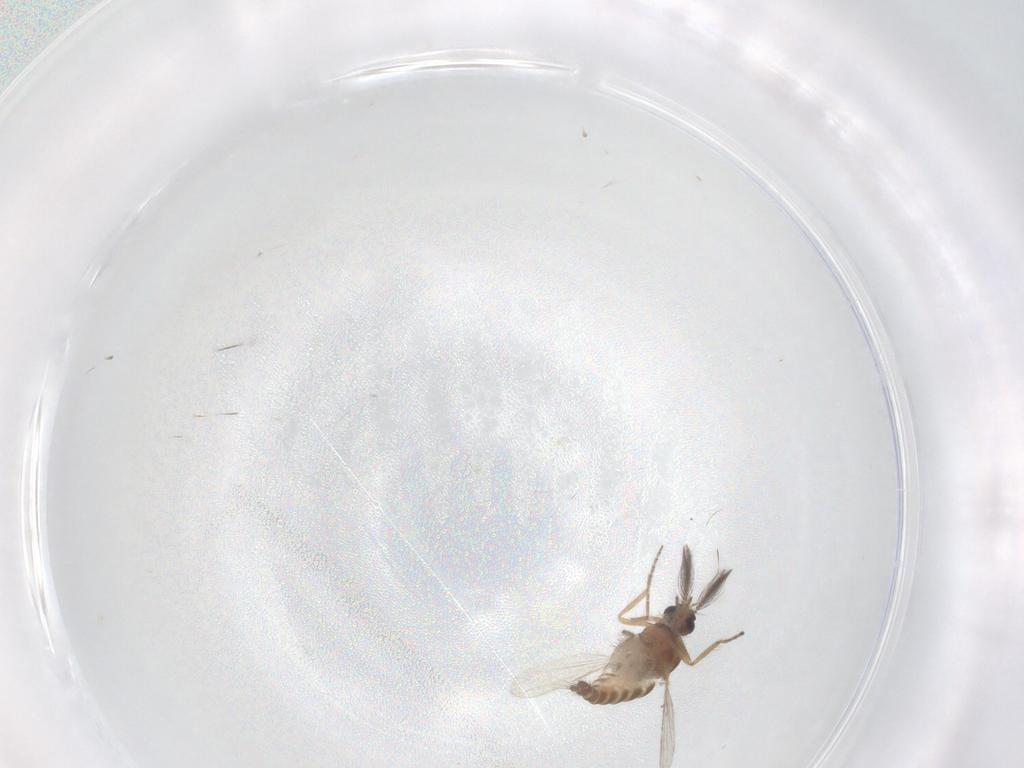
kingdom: Animalia
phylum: Arthropoda
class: Insecta
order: Diptera
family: Ceratopogonidae
